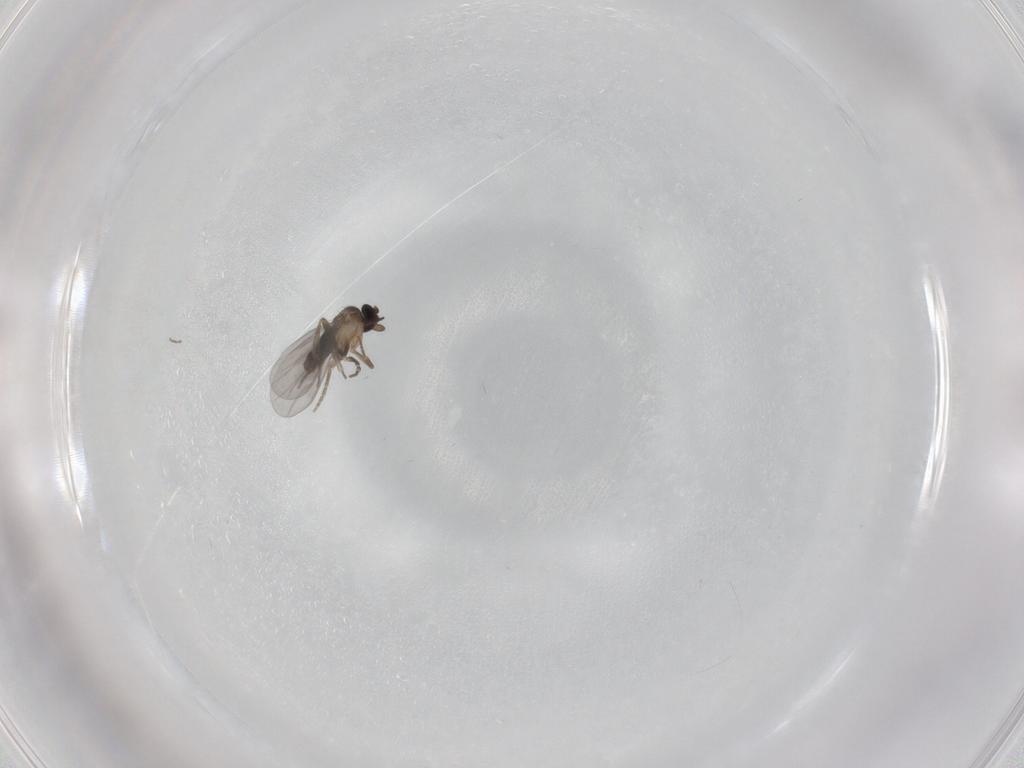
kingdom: Animalia
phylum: Arthropoda
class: Insecta
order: Diptera
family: Chironomidae
